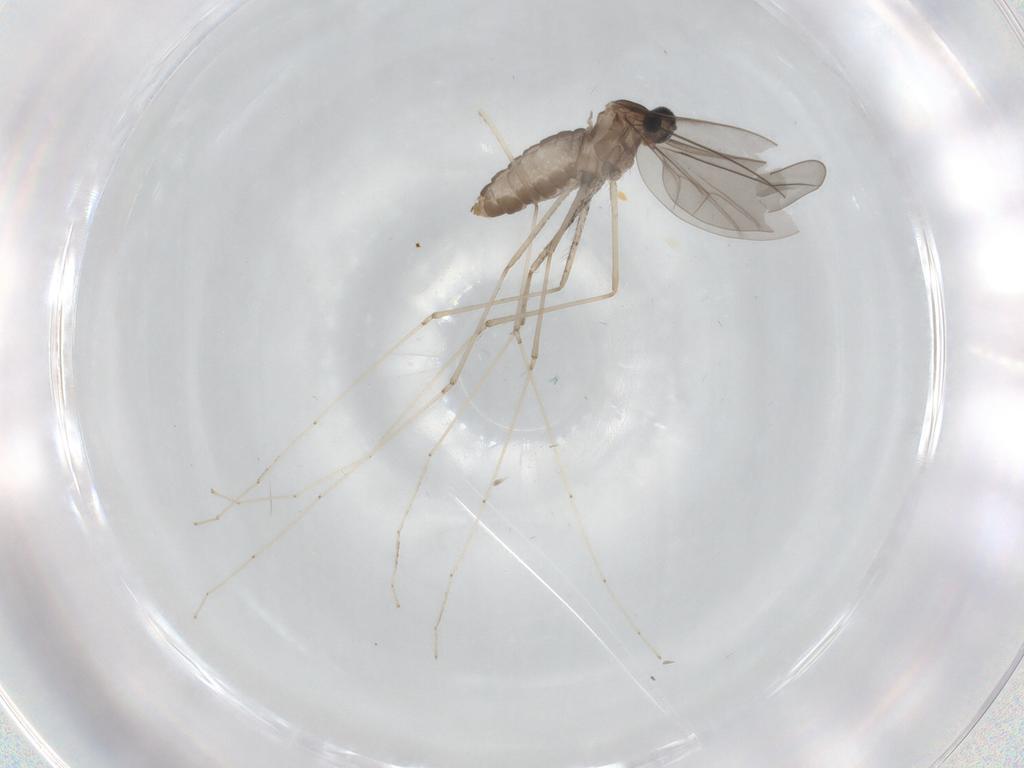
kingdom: Animalia
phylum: Arthropoda
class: Insecta
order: Diptera
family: Cecidomyiidae
